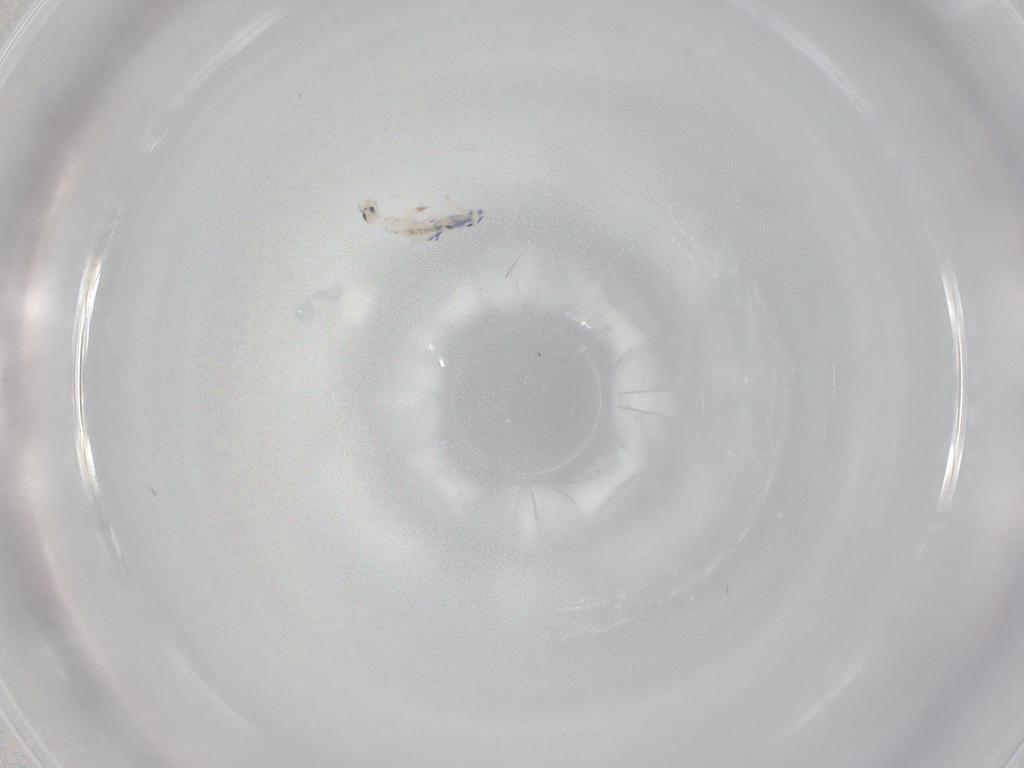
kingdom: Animalia
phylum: Arthropoda
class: Collembola
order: Entomobryomorpha
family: Entomobryidae
